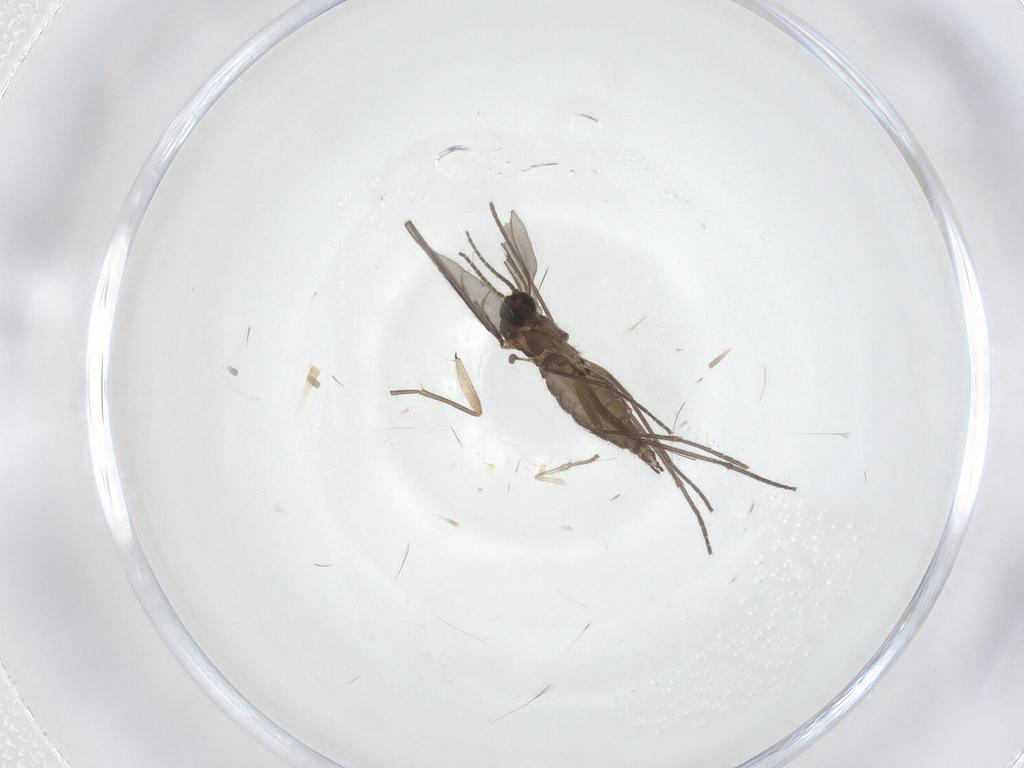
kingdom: Animalia
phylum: Arthropoda
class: Insecta
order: Diptera
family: Sciaridae
